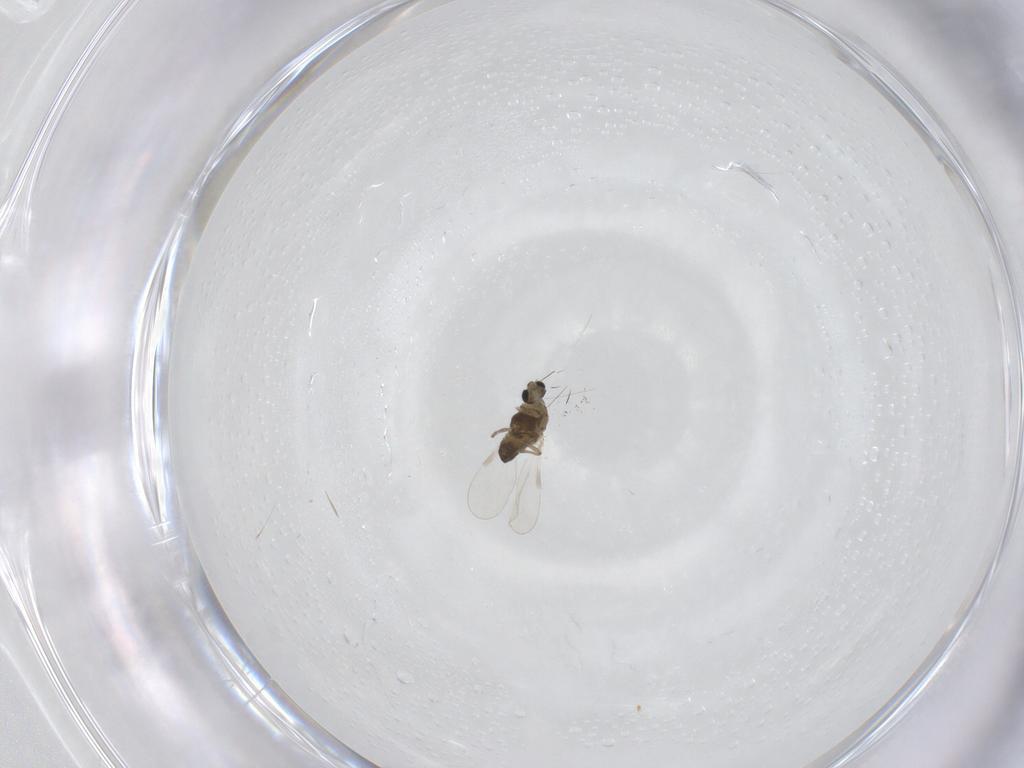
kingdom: Animalia
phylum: Arthropoda
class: Insecta
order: Diptera
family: Chironomidae
